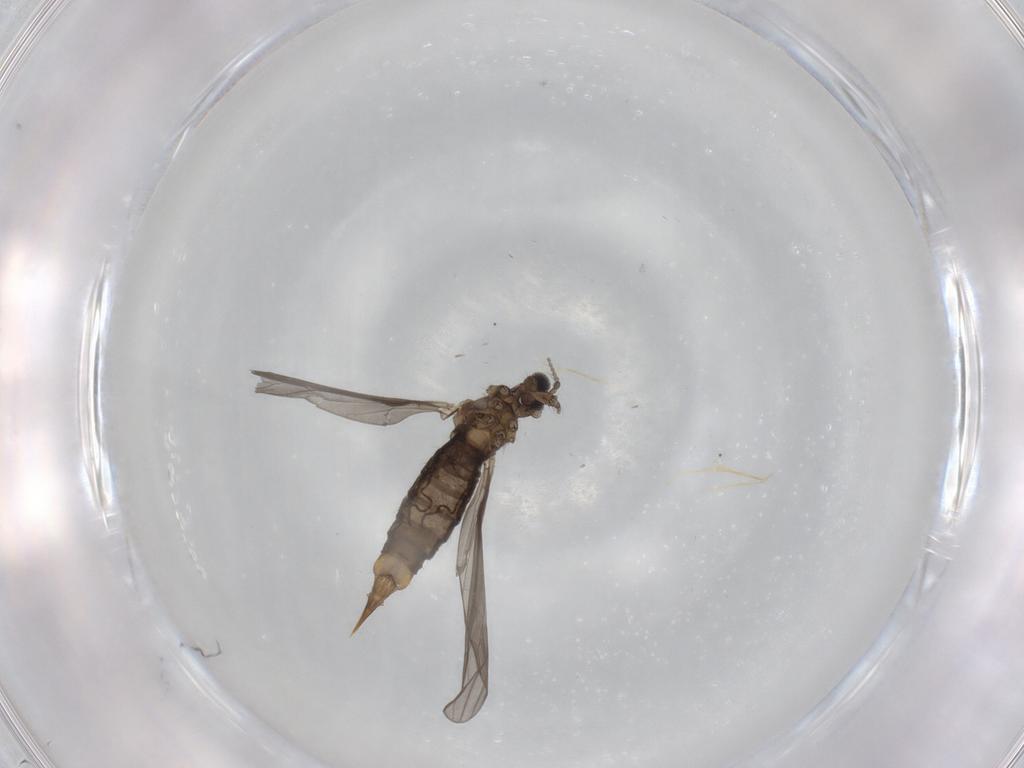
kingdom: Animalia
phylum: Arthropoda
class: Insecta
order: Diptera
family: Limoniidae
